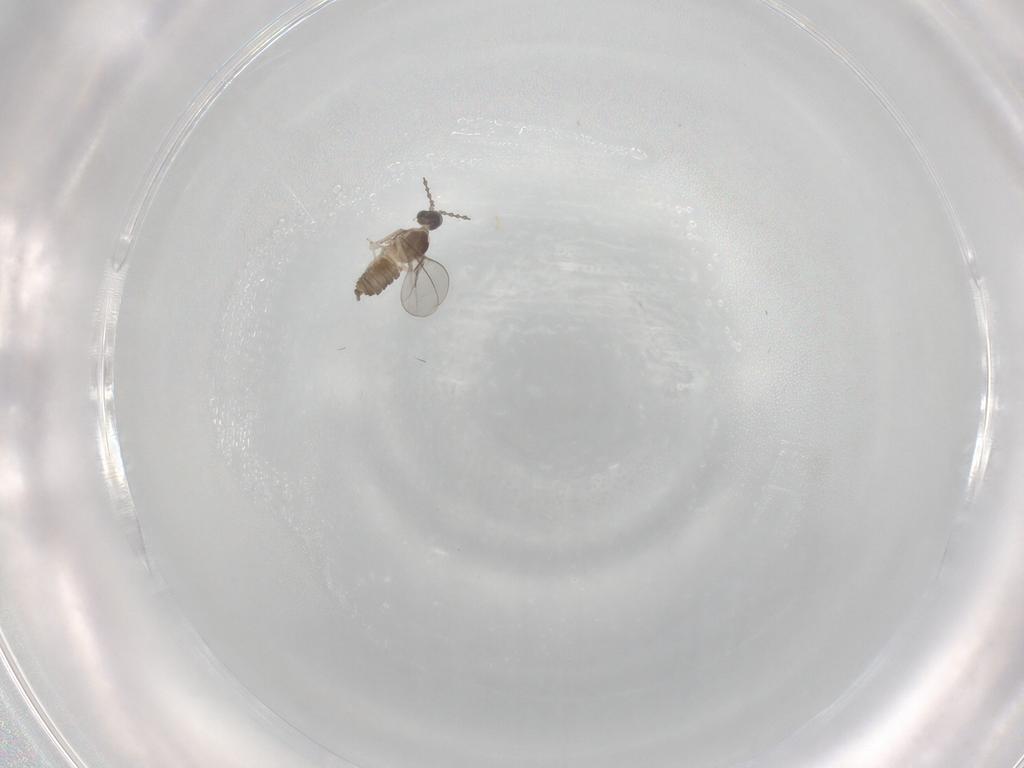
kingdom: Animalia
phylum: Arthropoda
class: Insecta
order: Diptera
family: Cecidomyiidae
